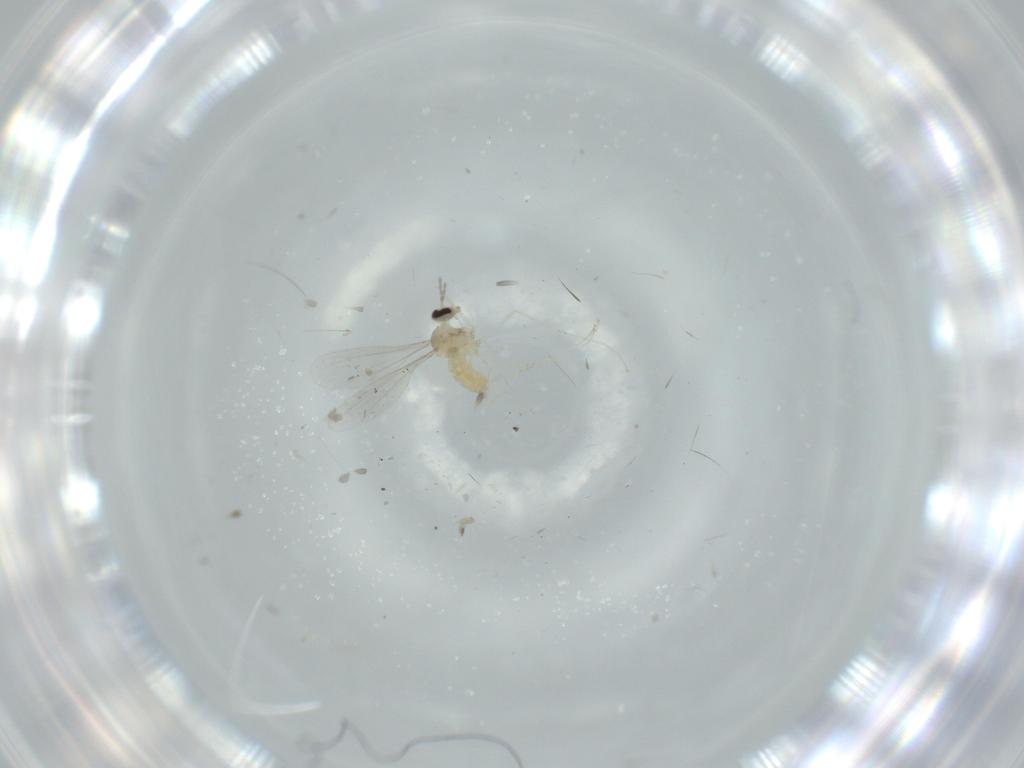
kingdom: Animalia
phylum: Arthropoda
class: Insecta
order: Diptera
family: Cecidomyiidae
